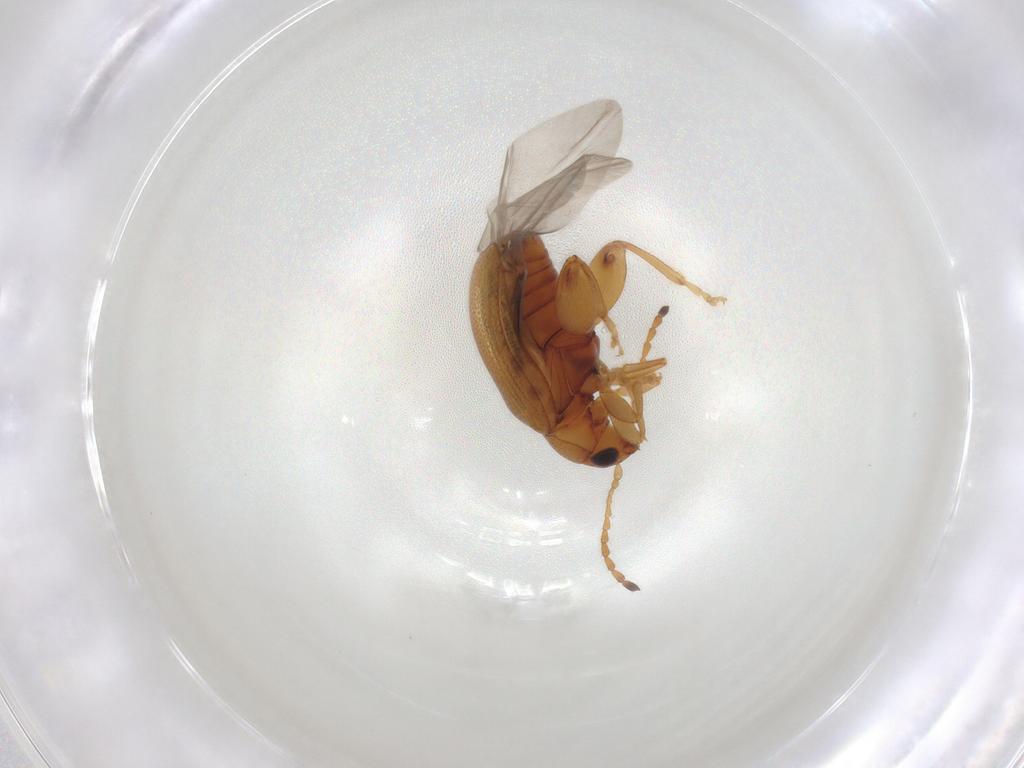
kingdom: Animalia
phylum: Arthropoda
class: Insecta
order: Coleoptera
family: Chrysomelidae
